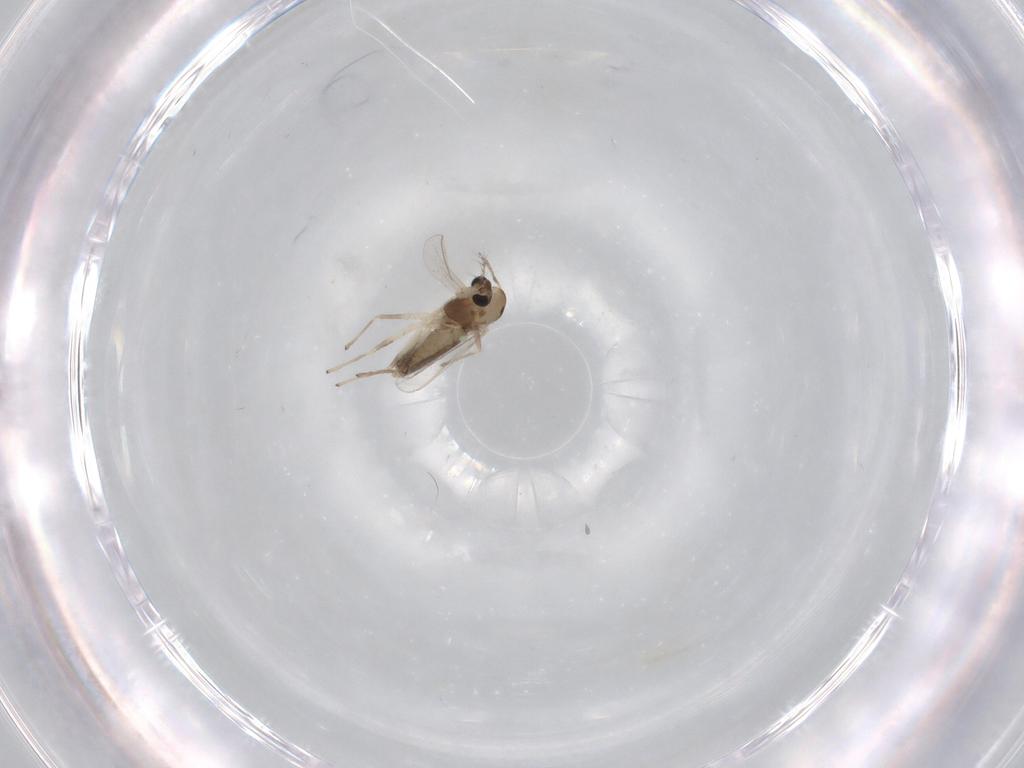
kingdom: Animalia
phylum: Arthropoda
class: Insecta
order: Diptera
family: Chironomidae
